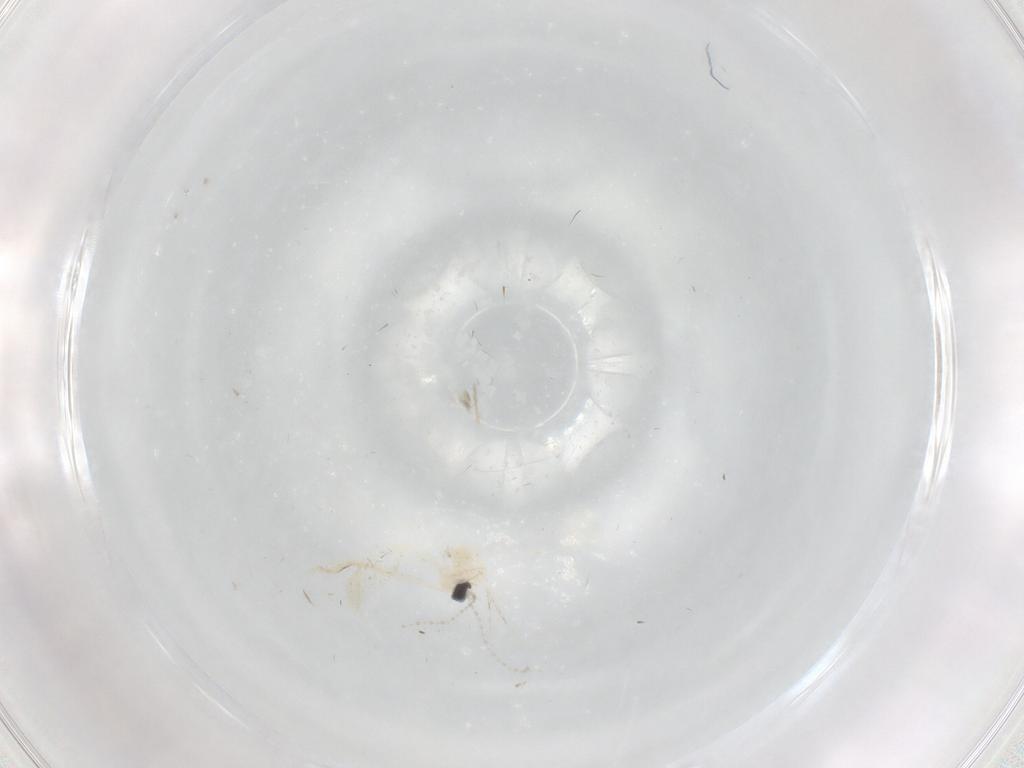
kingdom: Animalia
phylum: Arthropoda
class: Insecta
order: Diptera
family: Cecidomyiidae
